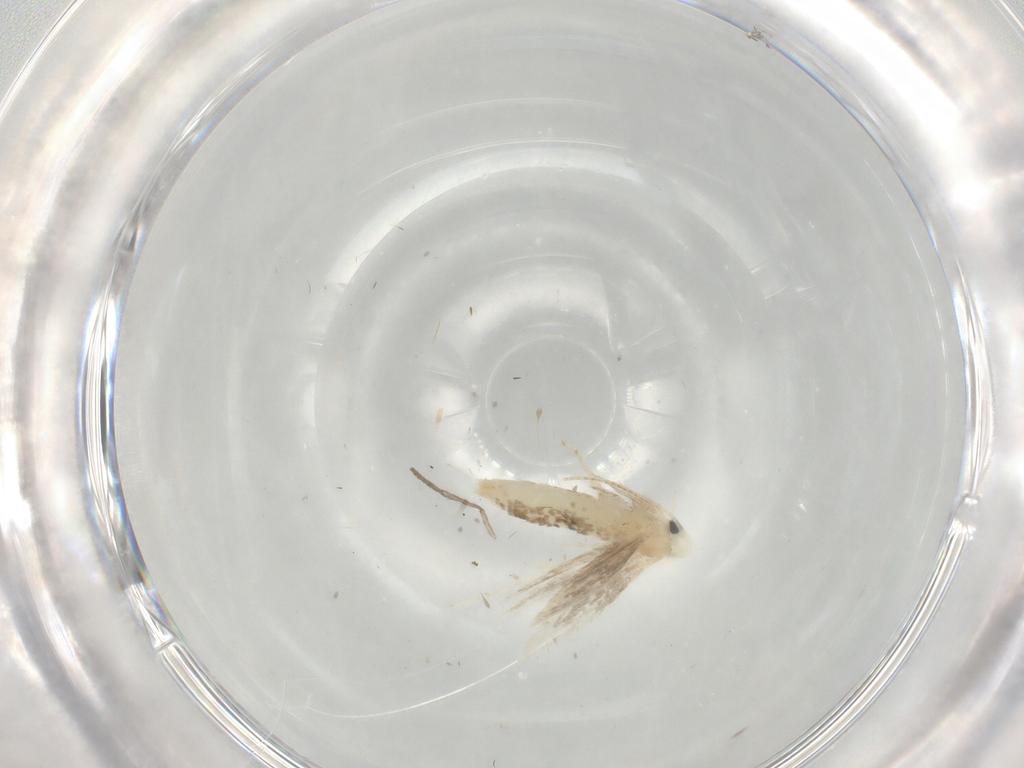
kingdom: Animalia
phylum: Arthropoda
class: Insecta
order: Lepidoptera
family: Gracillariidae
